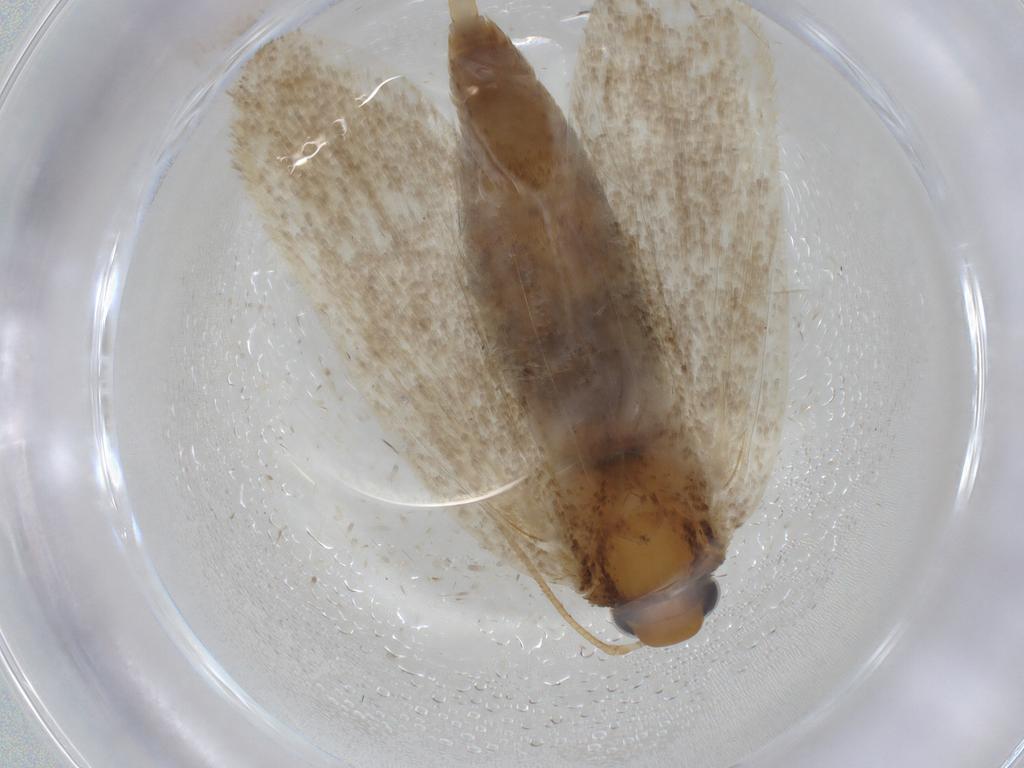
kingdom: Animalia
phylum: Arthropoda
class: Insecta
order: Lepidoptera
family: Depressariidae
